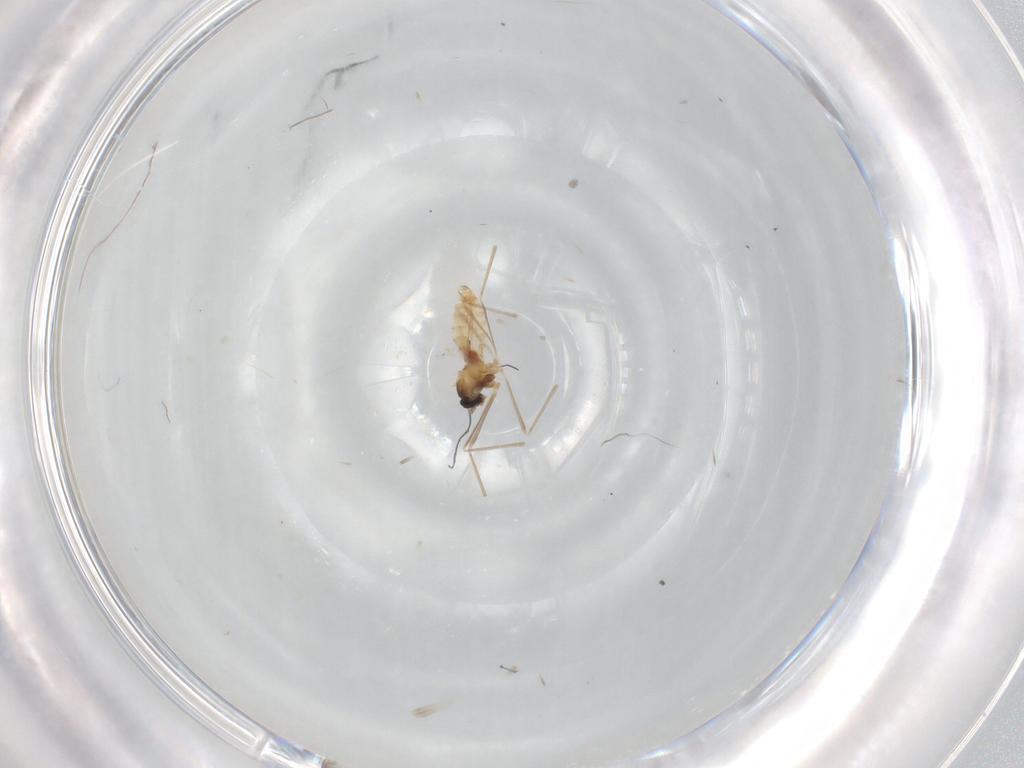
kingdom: Animalia
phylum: Arthropoda
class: Insecta
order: Diptera
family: Cecidomyiidae
